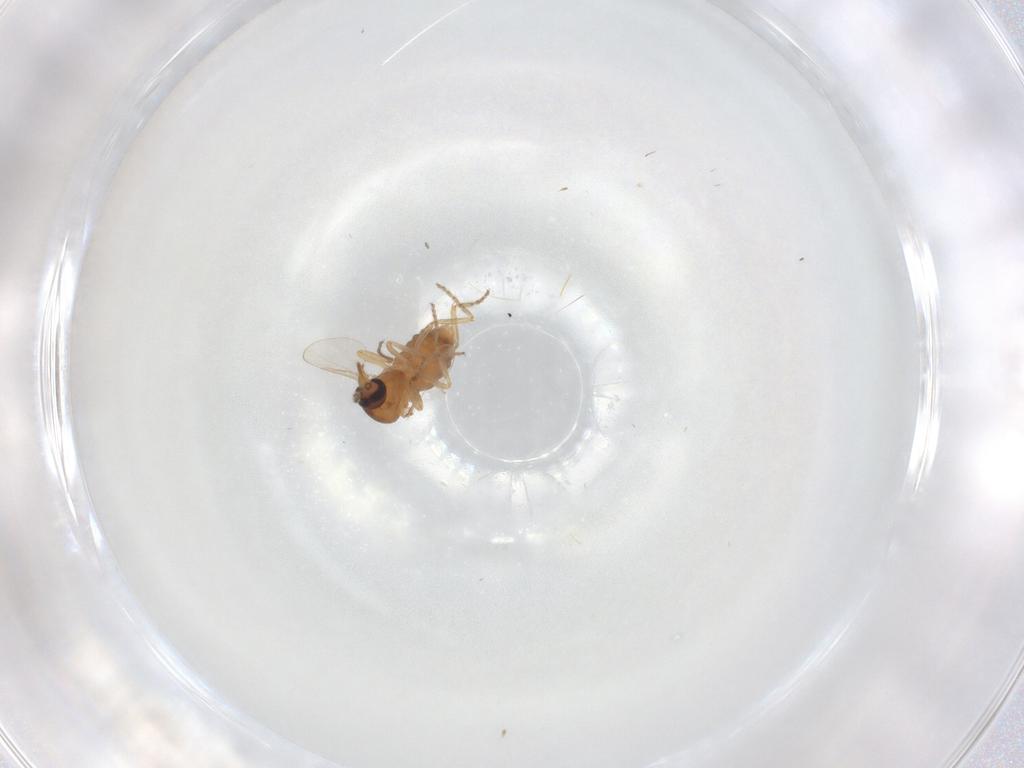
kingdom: Animalia
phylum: Arthropoda
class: Insecta
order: Diptera
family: Ceratopogonidae
